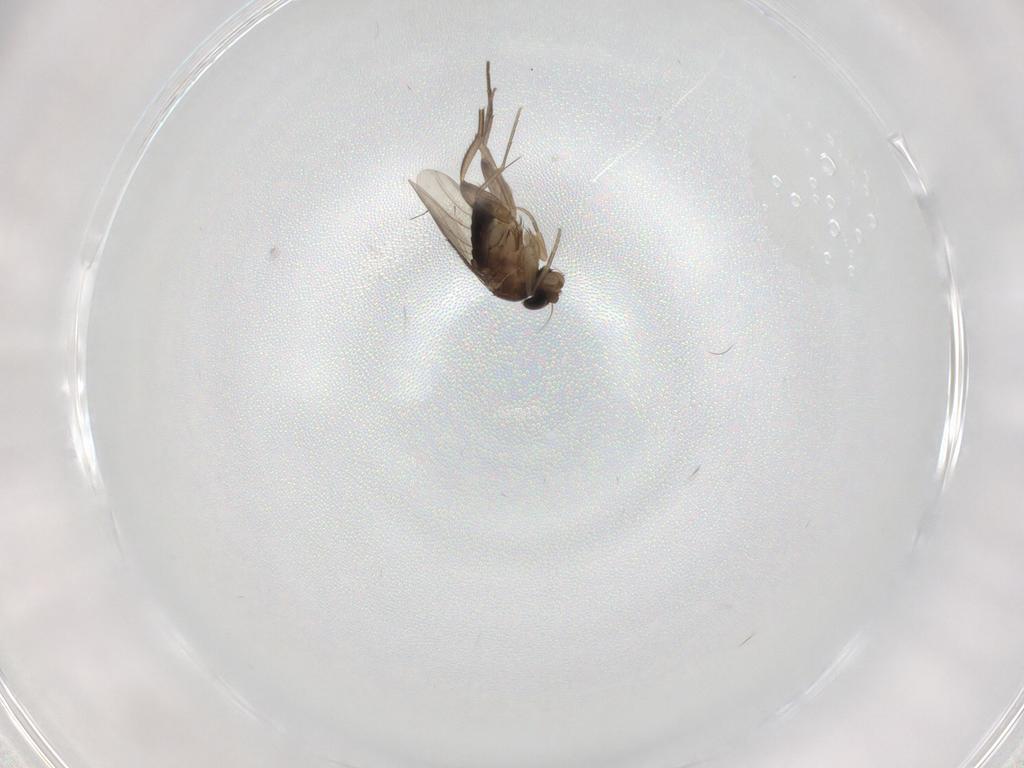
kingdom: Animalia
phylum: Arthropoda
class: Insecta
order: Diptera
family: Phoridae
